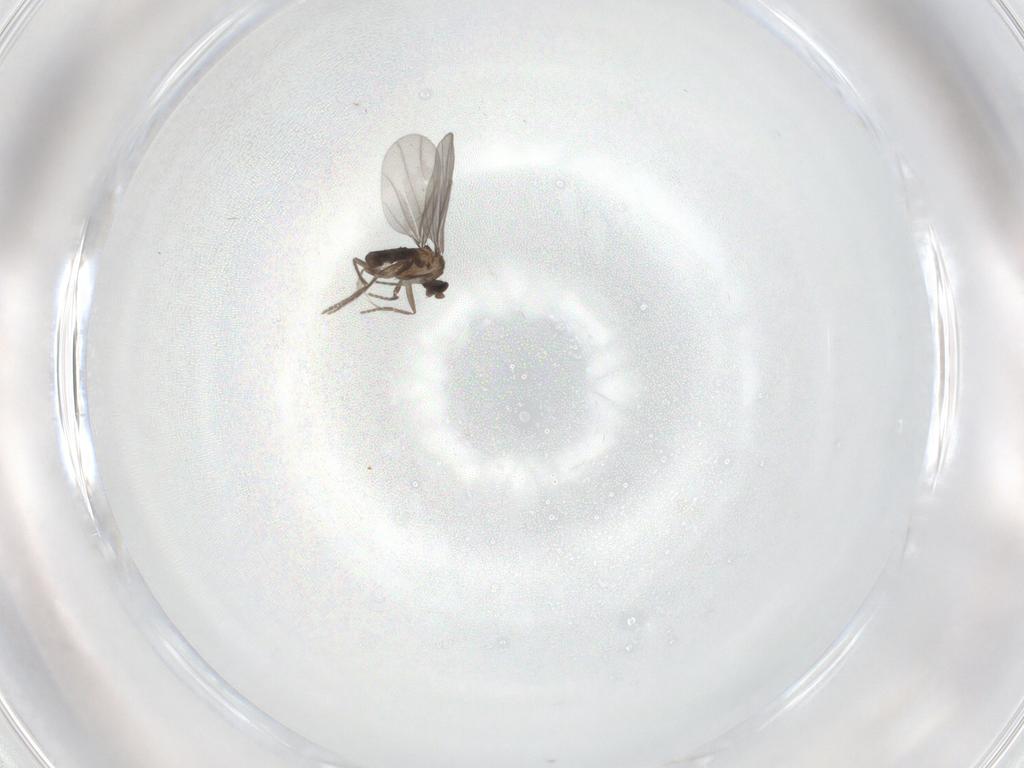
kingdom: Animalia
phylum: Arthropoda
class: Insecta
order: Diptera
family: Phoridae
